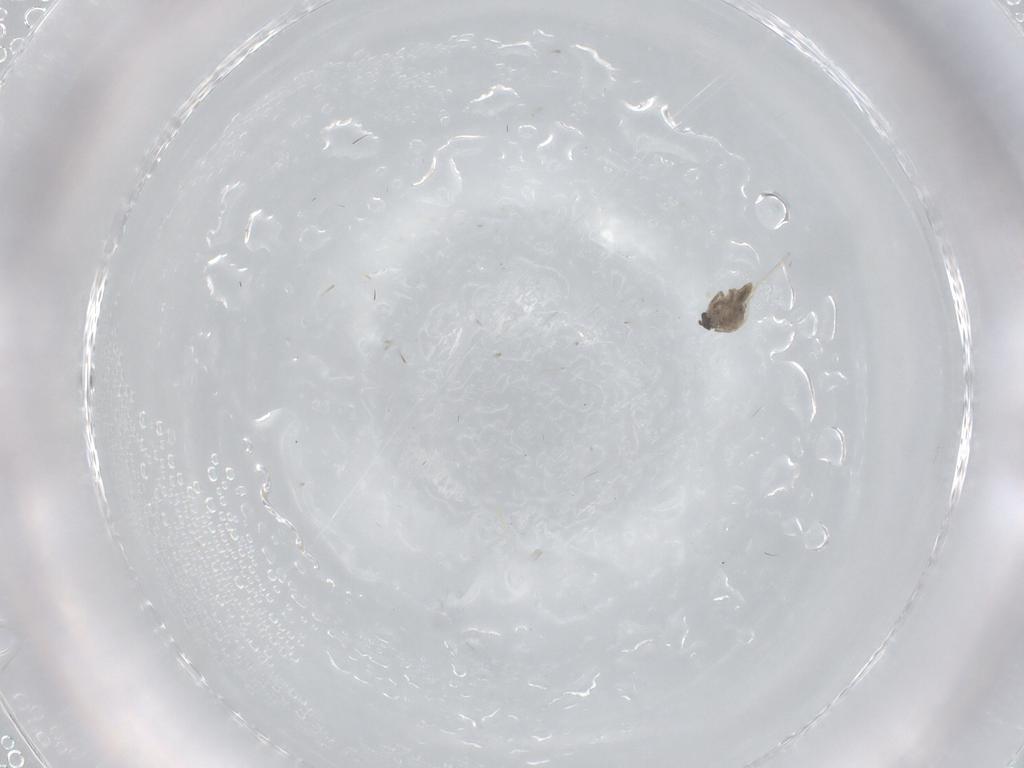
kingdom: Animalia
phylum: Arthropoda
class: Insecta
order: Diptera
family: Cecidomyiidae
